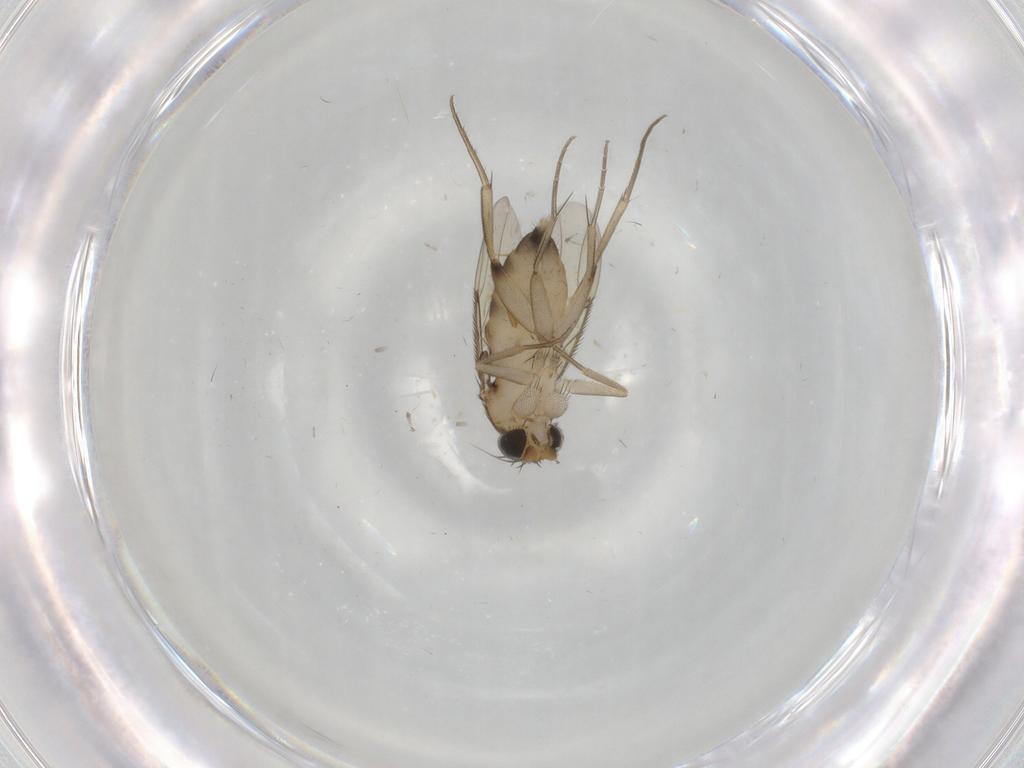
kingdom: Animalia
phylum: Arthropoda
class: Insecta
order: Diptera
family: Phoridae
